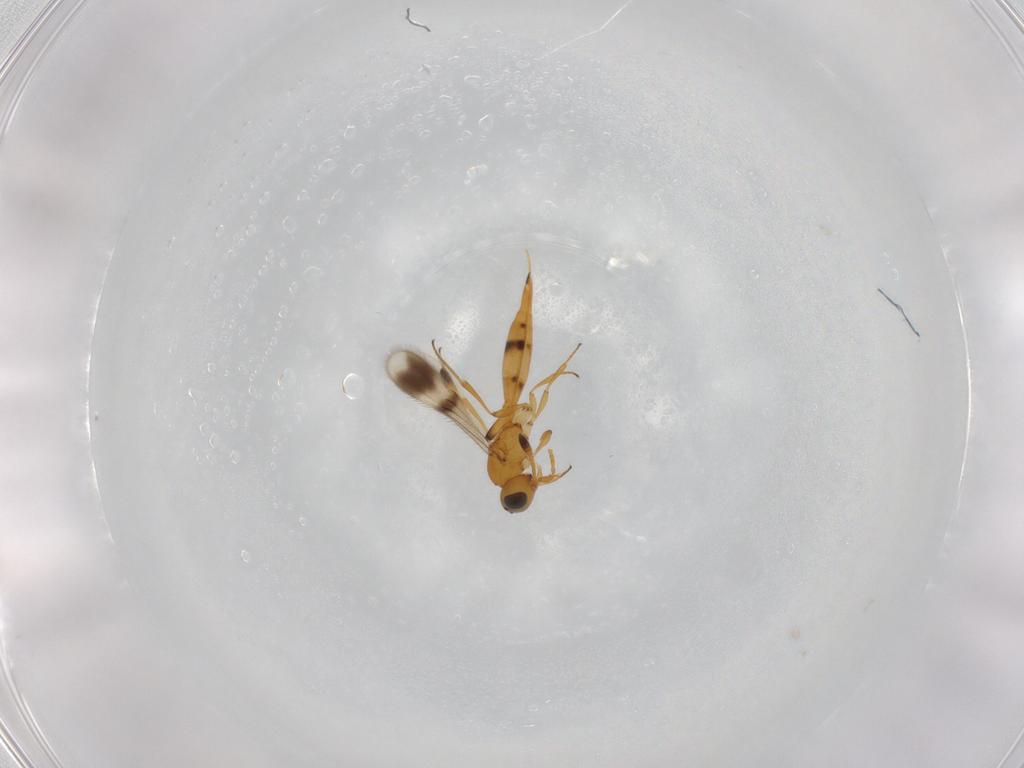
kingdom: Animalia
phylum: Arthropoda
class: Insecta
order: Hymenoptera
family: Scelionidae
